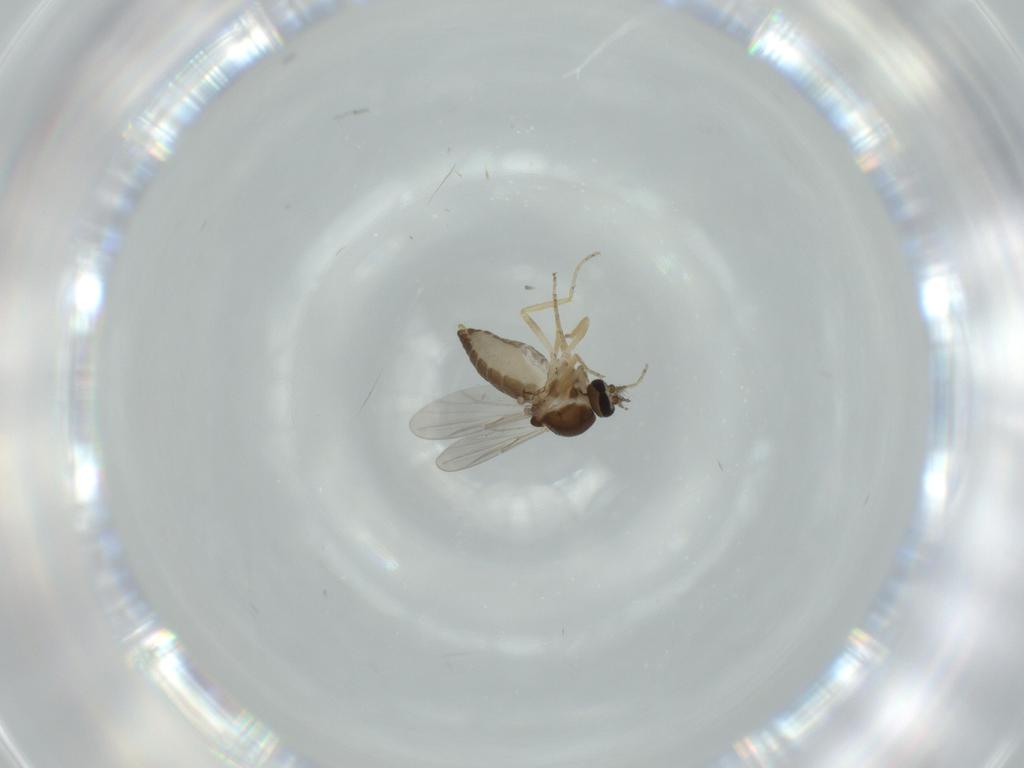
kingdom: Animalia
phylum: Arthropoda
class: Insecta
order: Diptera
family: Ceratopogonidae
